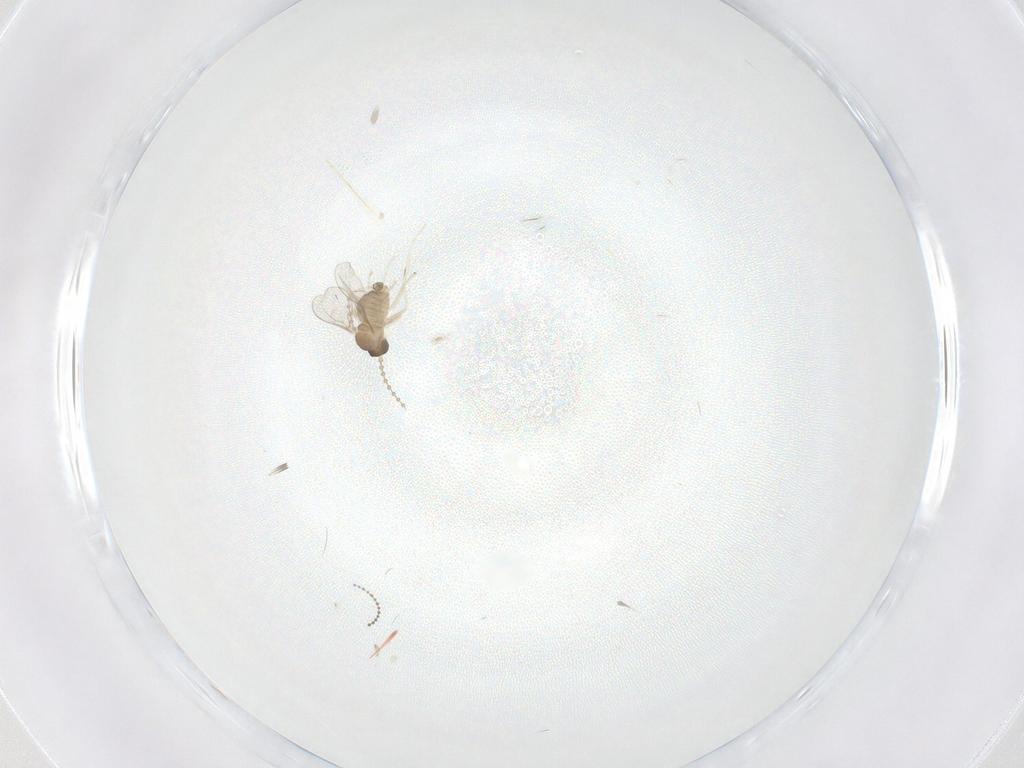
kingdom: Animalia
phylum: Arthropoda
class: Insecta
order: Diptera
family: Cecidomyiidae
